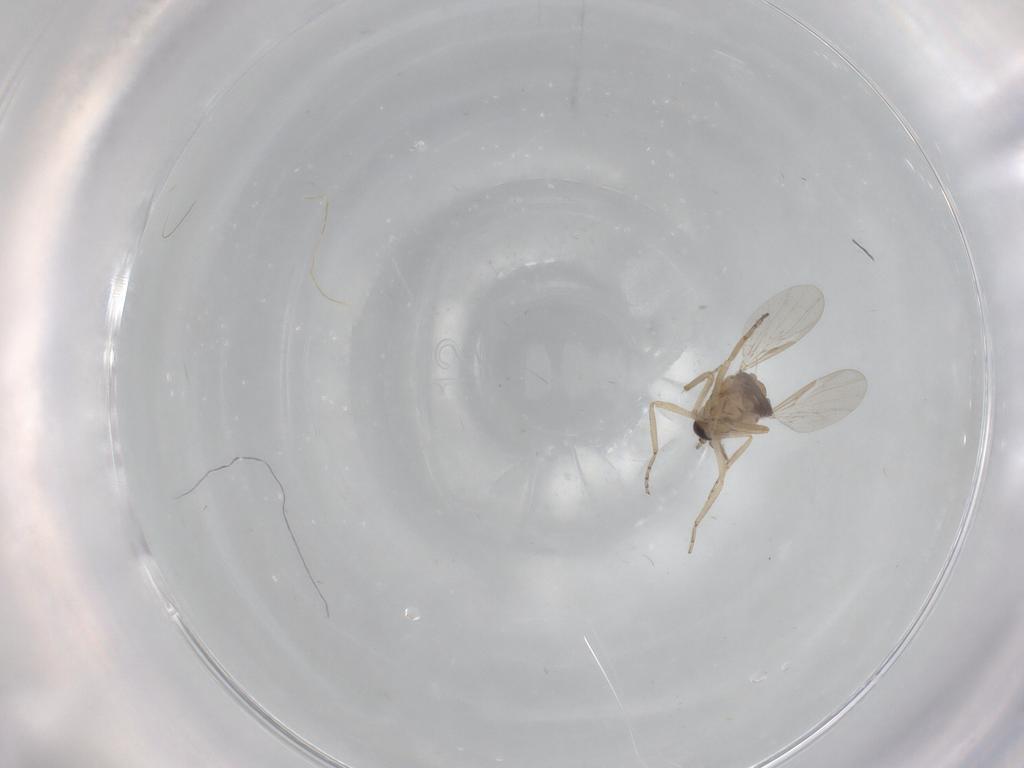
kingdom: Animalia
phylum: Arthropoda
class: Insecta
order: Diptera
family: Ceratopogonidae
